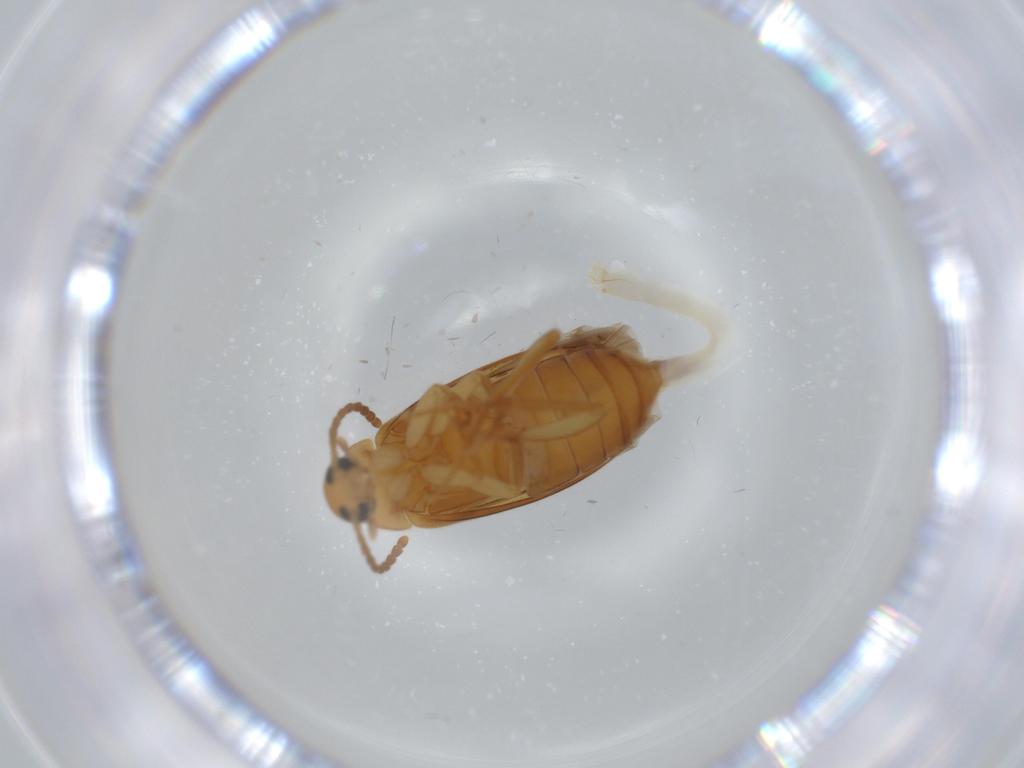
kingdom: Animalia
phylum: Arthropoda
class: Insecta
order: Coleoptera
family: Scraptiidae
